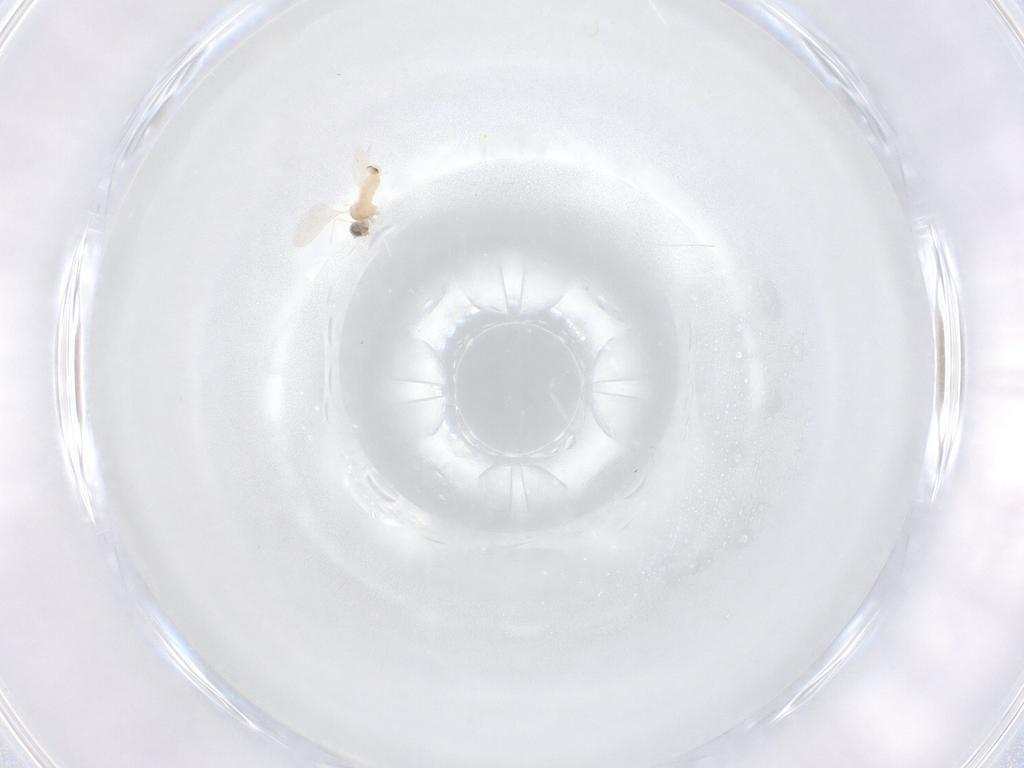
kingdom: Animalia
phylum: Arthropoda
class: Insecta
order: Diptera
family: Cecidomyiidae
